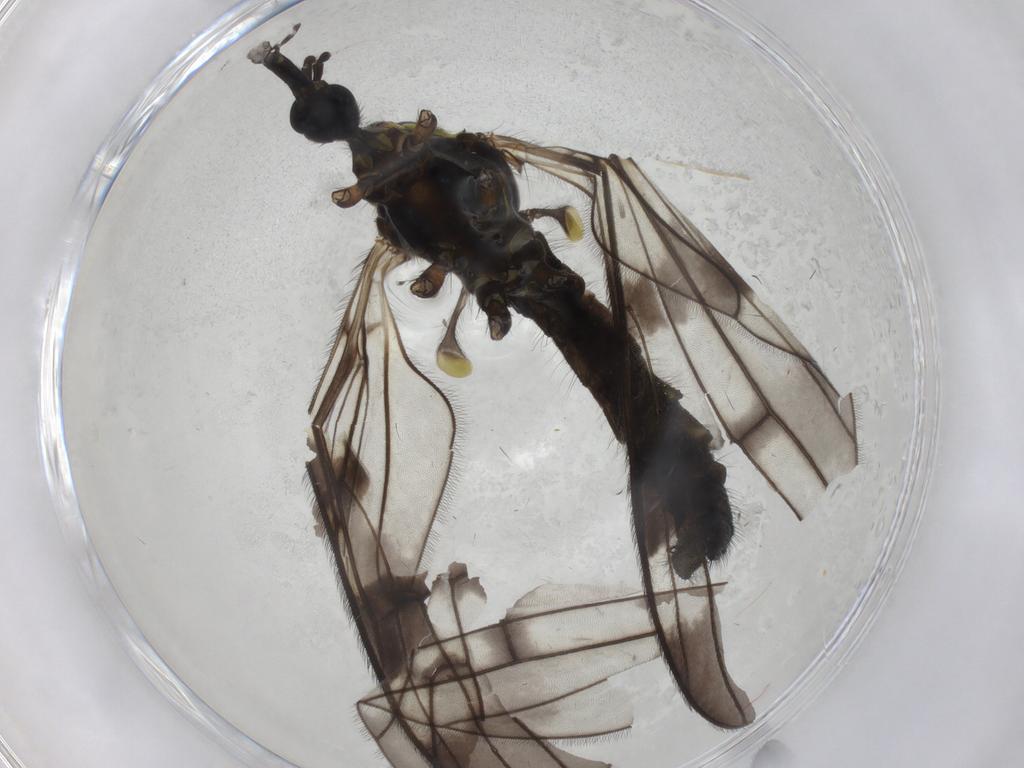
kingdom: Animalia
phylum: Arthropoda
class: Insecta
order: Diptera
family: Limoniidae
